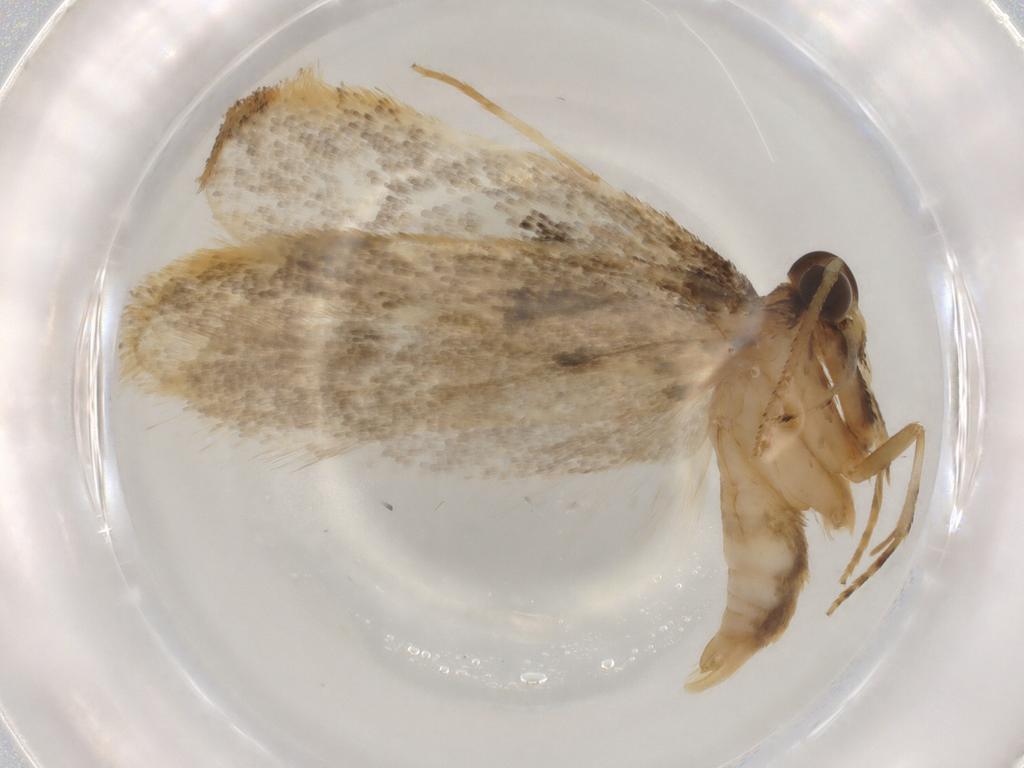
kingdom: Animalia
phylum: Arthropoda
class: Insecta
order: Lepidoptera
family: Gelechiidae
